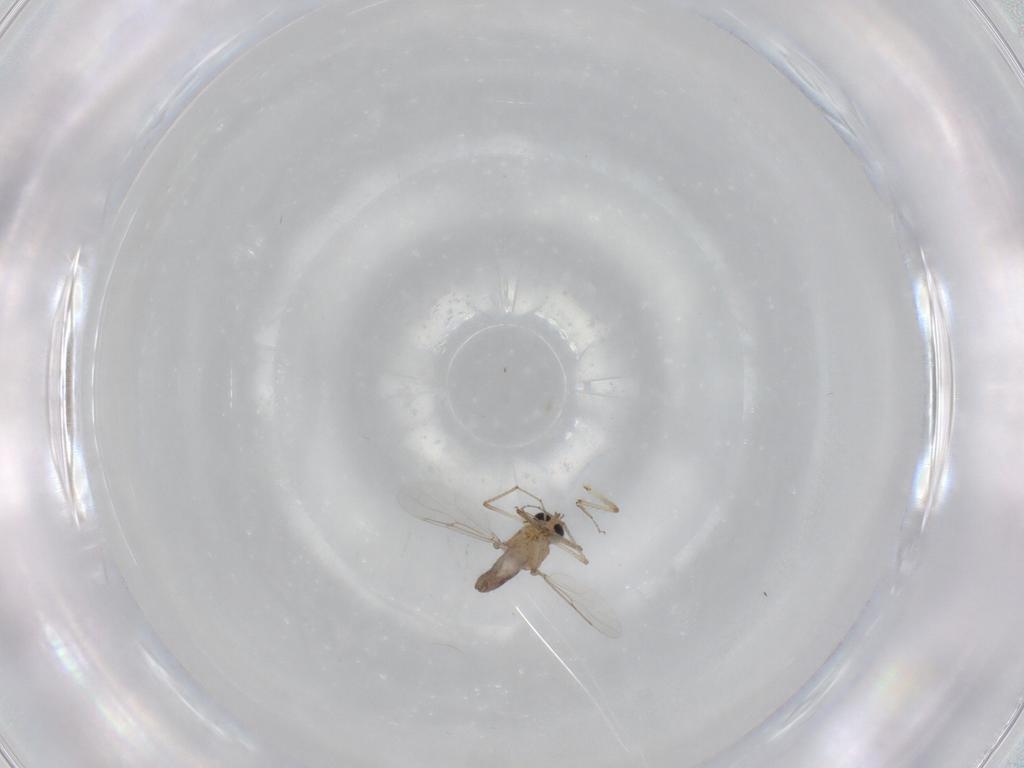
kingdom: Animalia
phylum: Arthropoda
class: Insecta
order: Diptera
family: Ceratopogonidae
